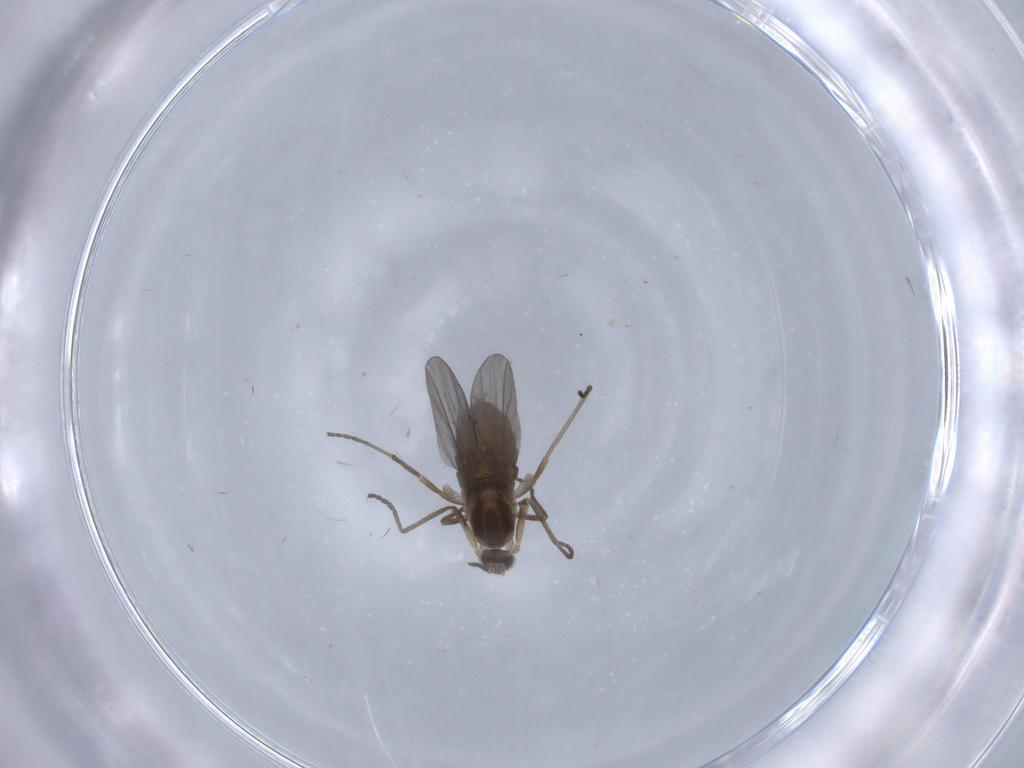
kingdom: Animalia
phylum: Arthropoda
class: Insecta
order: Diptera
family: Cecidomyiidae
